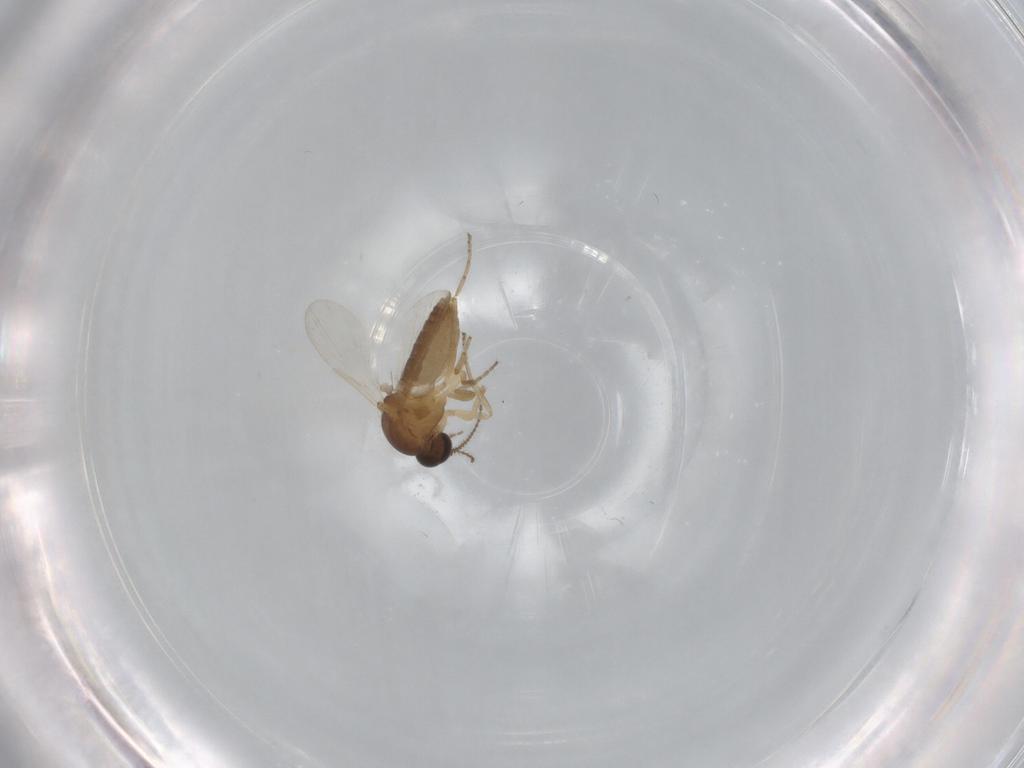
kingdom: Animalia
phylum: Arthropoda
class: Insecta
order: Diptera
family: Ceratopogonidae
